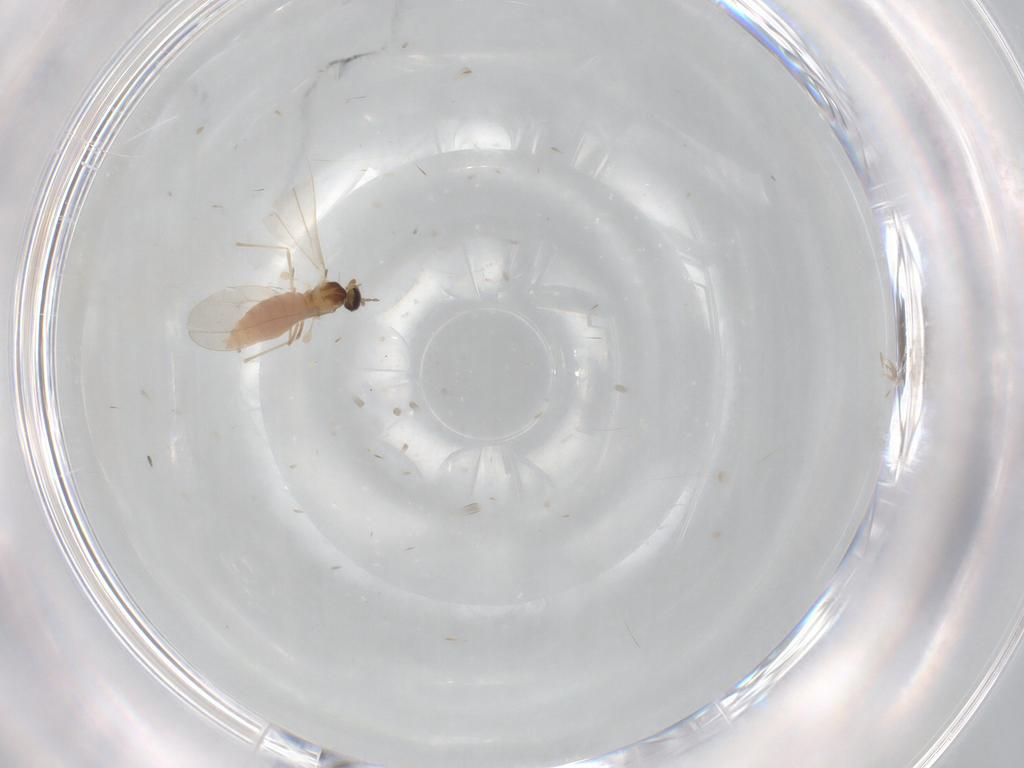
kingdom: Animalia
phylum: Arthropoda
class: Insecta
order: Diptera
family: Cecidomyiidae
